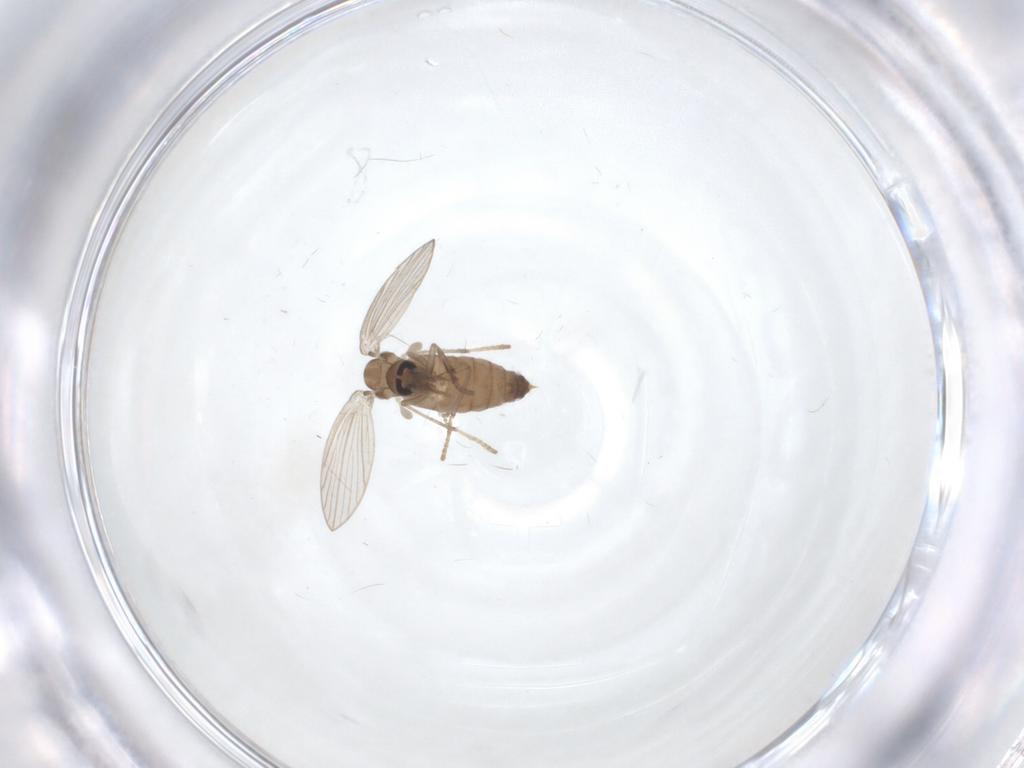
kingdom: Animalia
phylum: Arthropoda
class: Insecta
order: Diptera
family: Psychodidae
